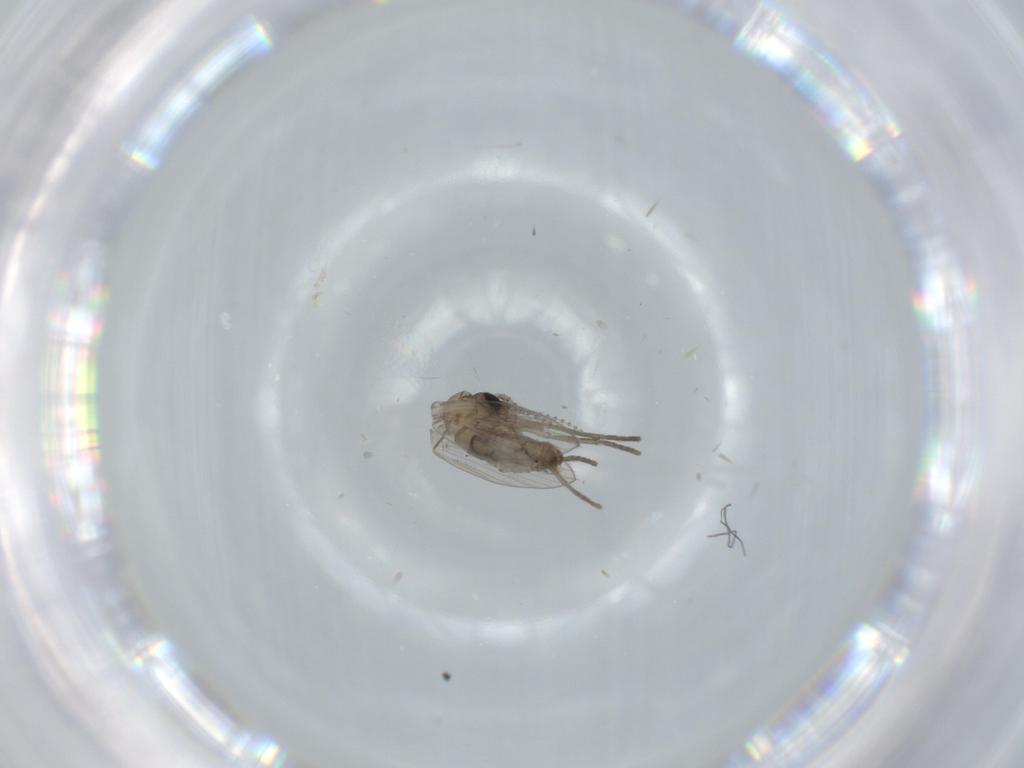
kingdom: Animalia
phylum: Arthropoda
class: Insecta
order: Diptera
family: Psychodidae
